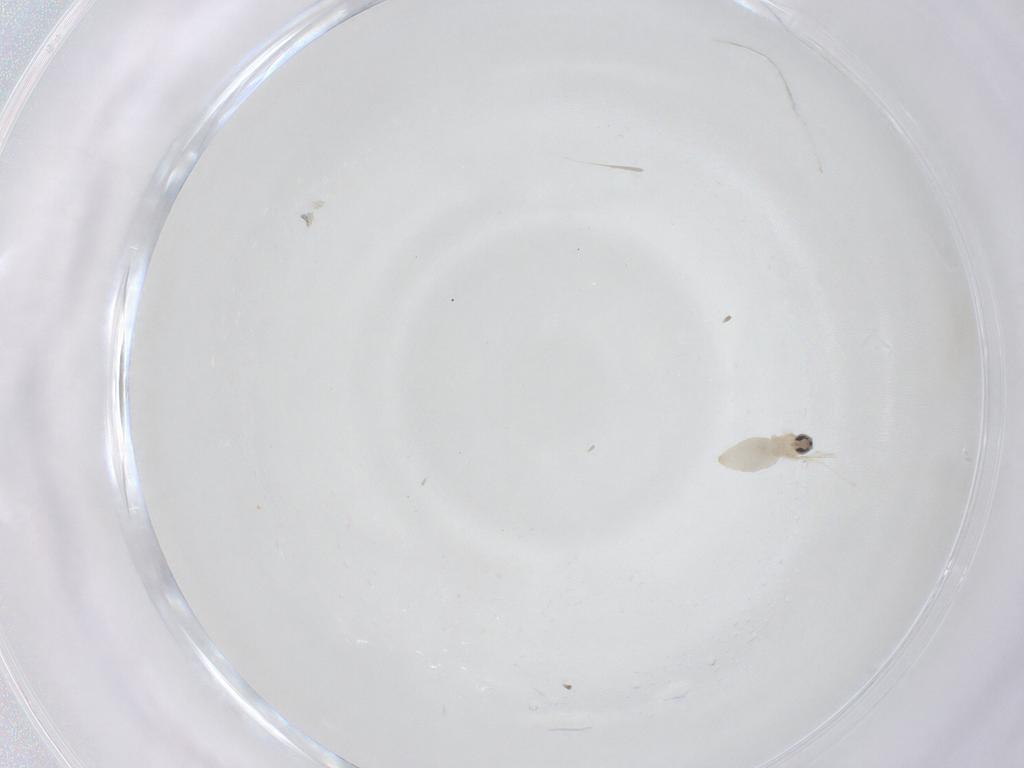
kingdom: Animalia
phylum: Arthropoda
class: Insecta
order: Diptera
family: Cecidomyiidae
